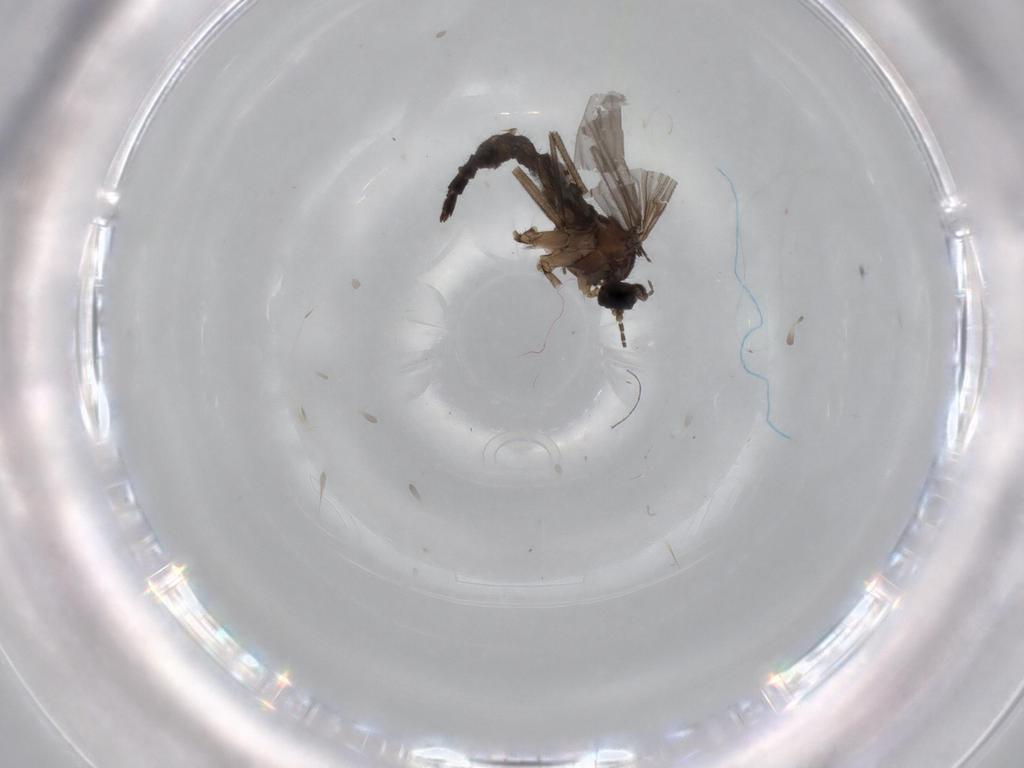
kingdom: Animalia
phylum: Arthropoda
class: Insecta
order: Diptera
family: Sciaridae
